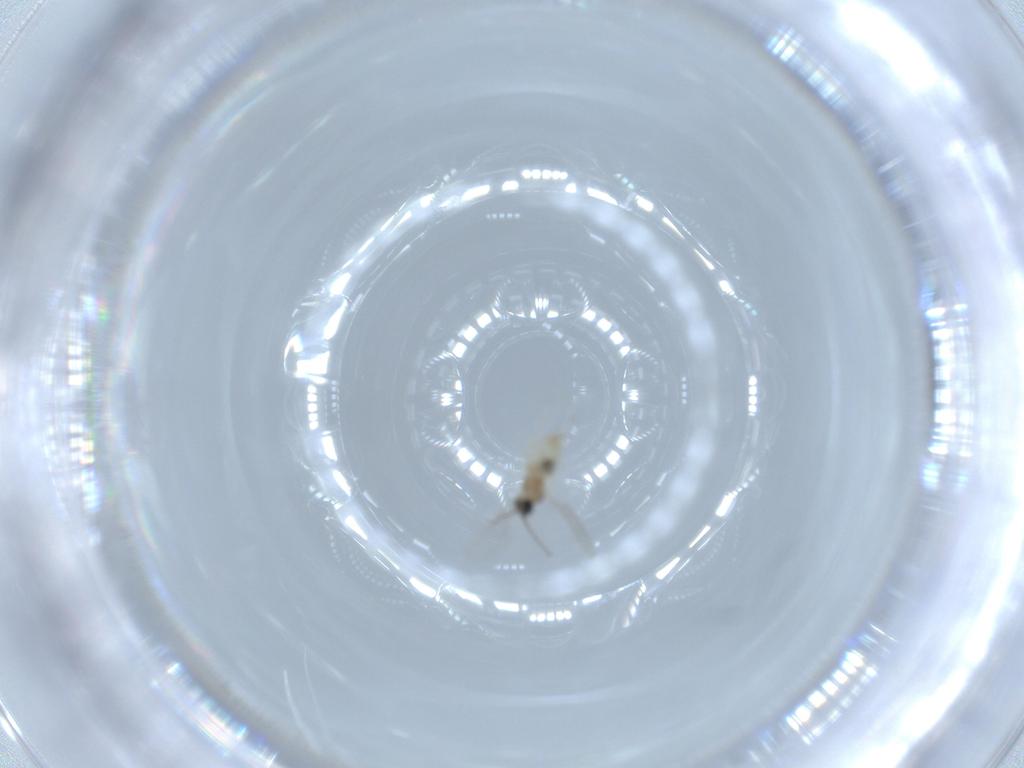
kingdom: Animalia
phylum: Arthropoda
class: Insecta
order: Diptera
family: Cecidomyiidae
